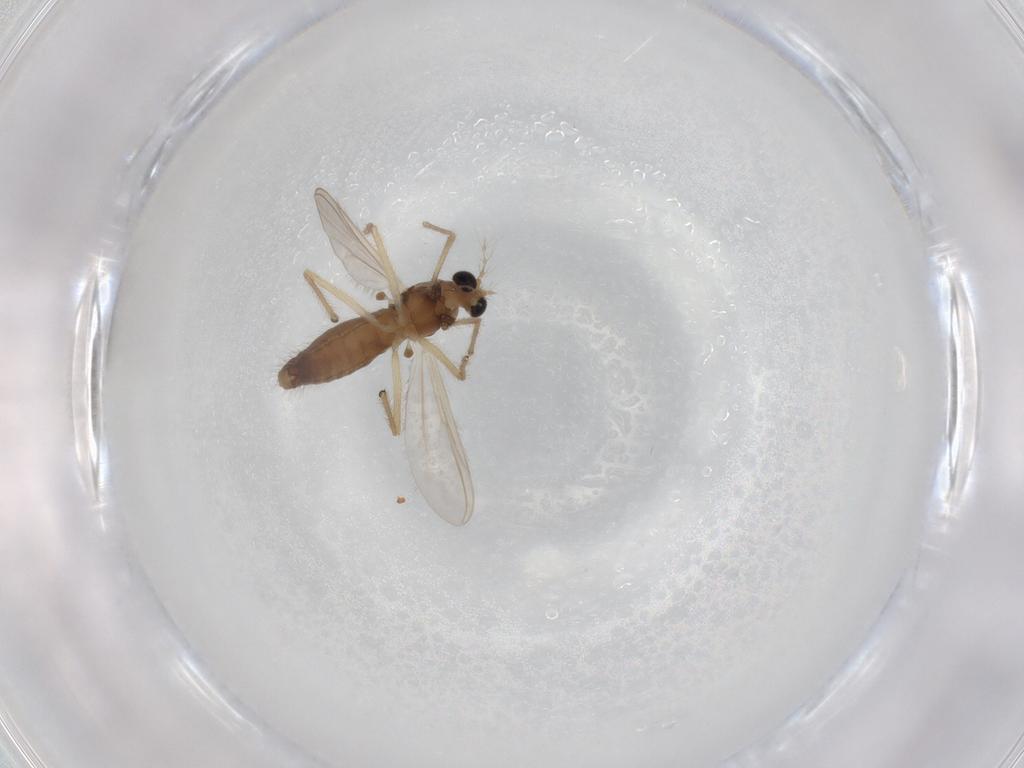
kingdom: Animalia
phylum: Arthropoda
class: Insecta
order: Diptera
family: Chironomidae
